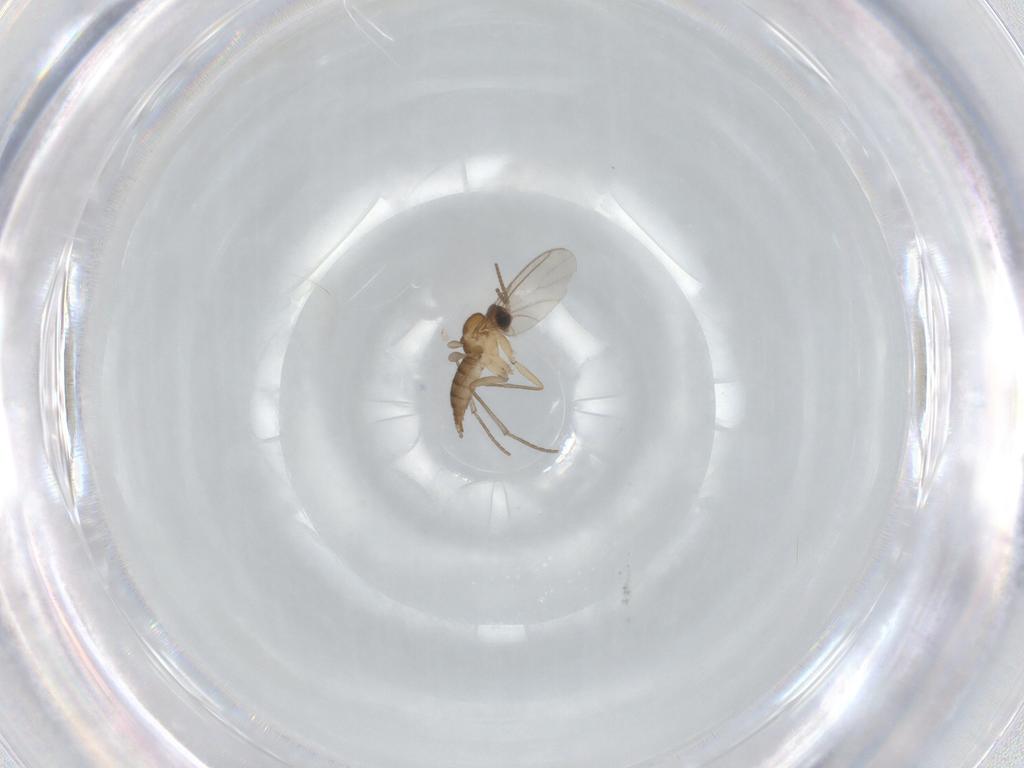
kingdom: Animalia
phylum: Arthropoda
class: Insecta
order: Diptera
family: Sciaridae
